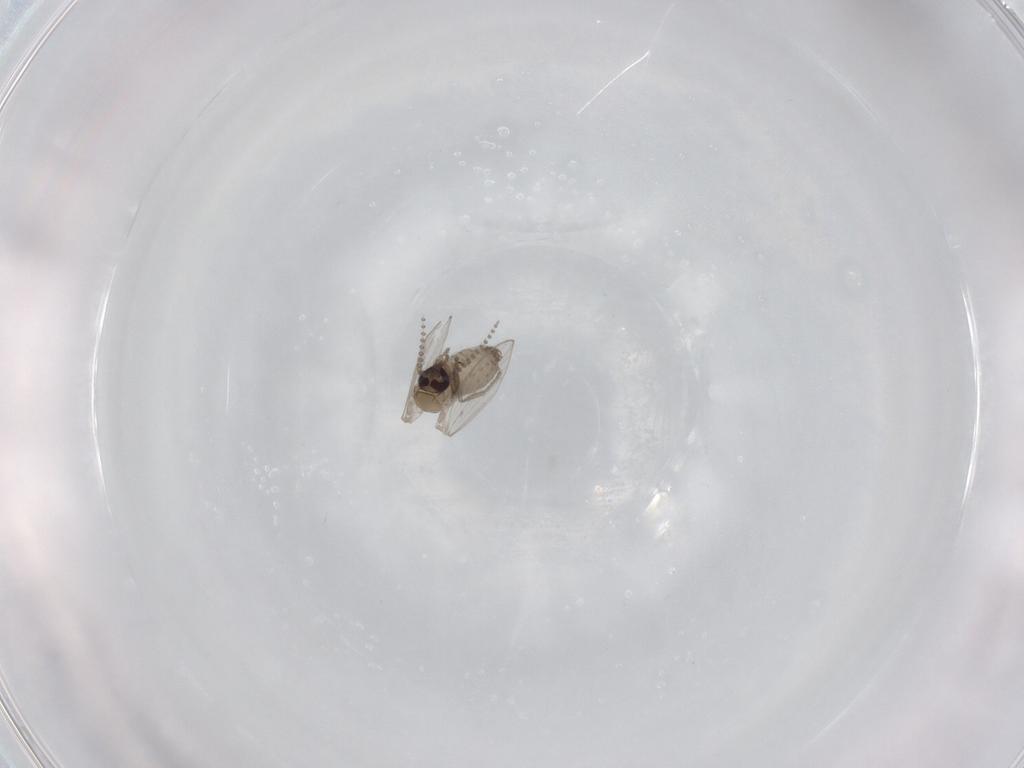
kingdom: Animalia
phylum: Arthropoda
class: Insecta
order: Diptera
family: Psychodidae
